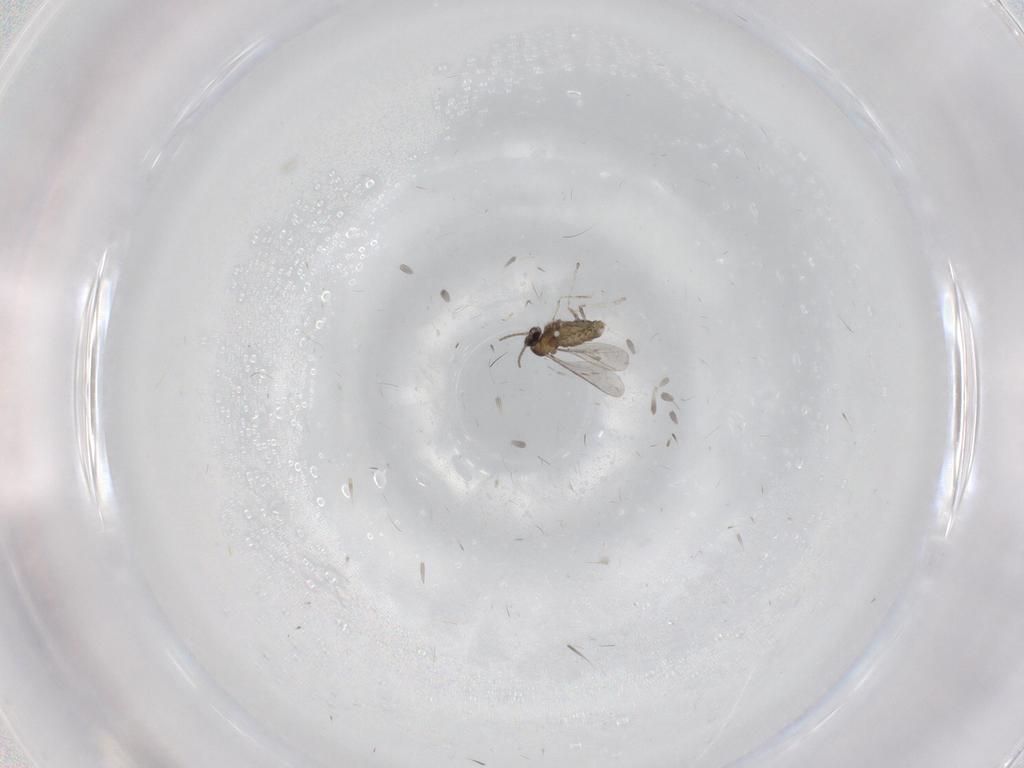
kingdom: Animalia
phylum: Arthropoda
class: Insecta
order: Diptera
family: Cecidomyiidae
